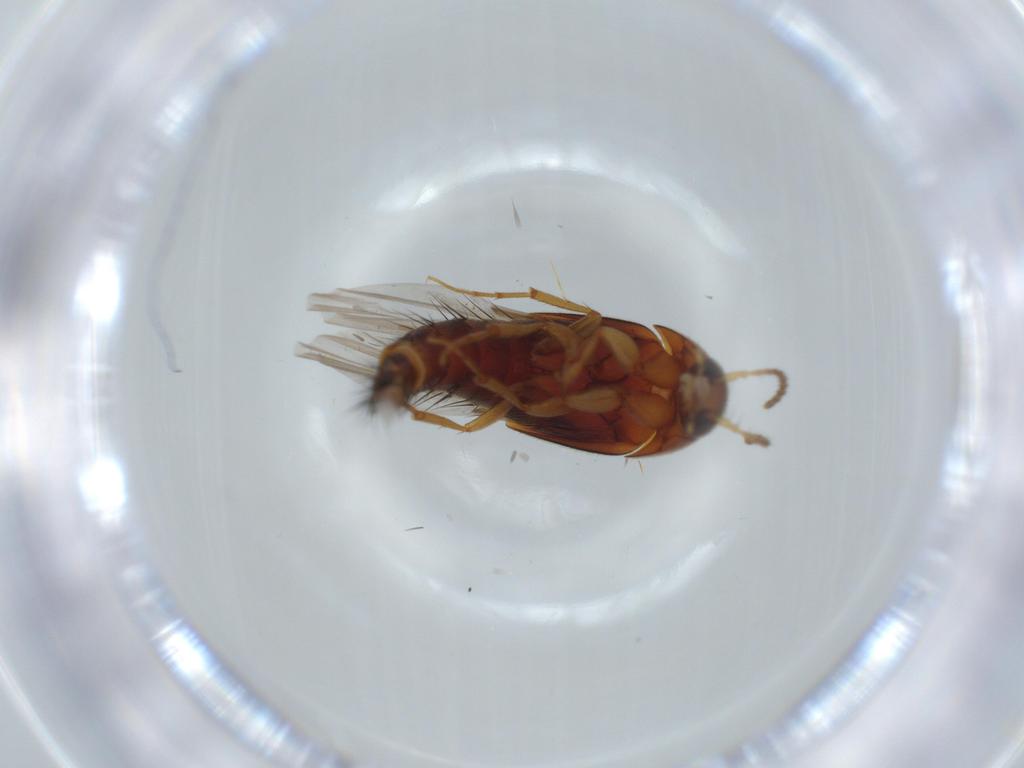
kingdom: Animalia
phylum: Arthropoda
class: Insecta
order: Coleoptera
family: Staphylinidae
